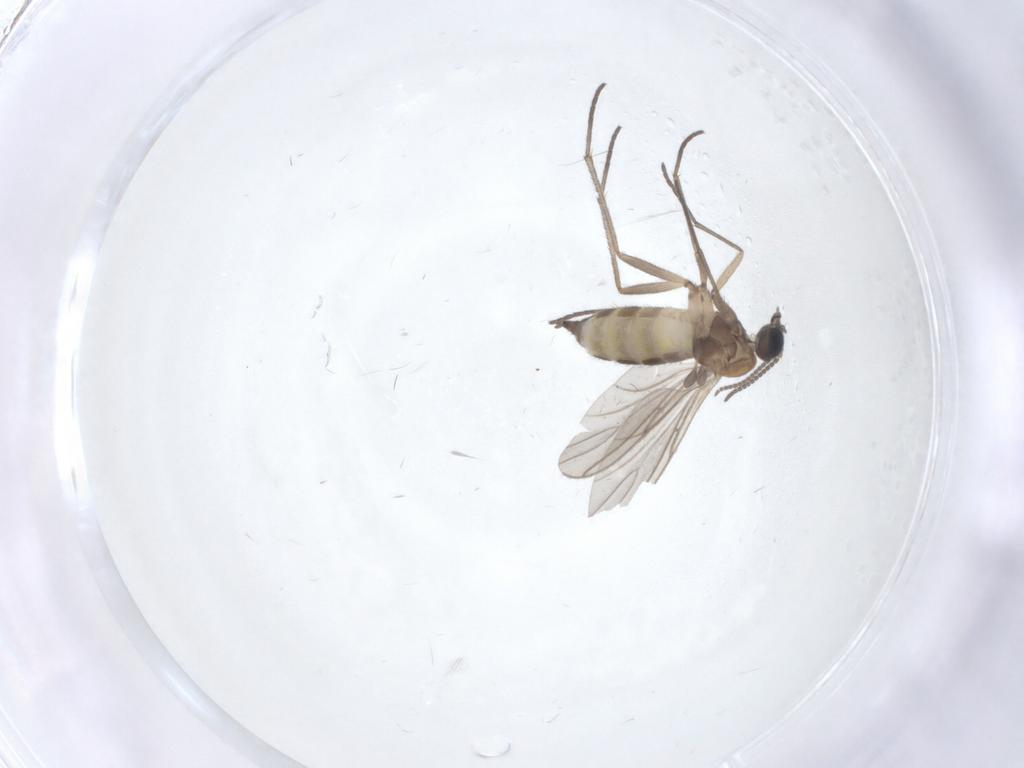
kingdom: Animalia
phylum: Arthropoda
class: Insecta
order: Diptera
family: Sciaridae
